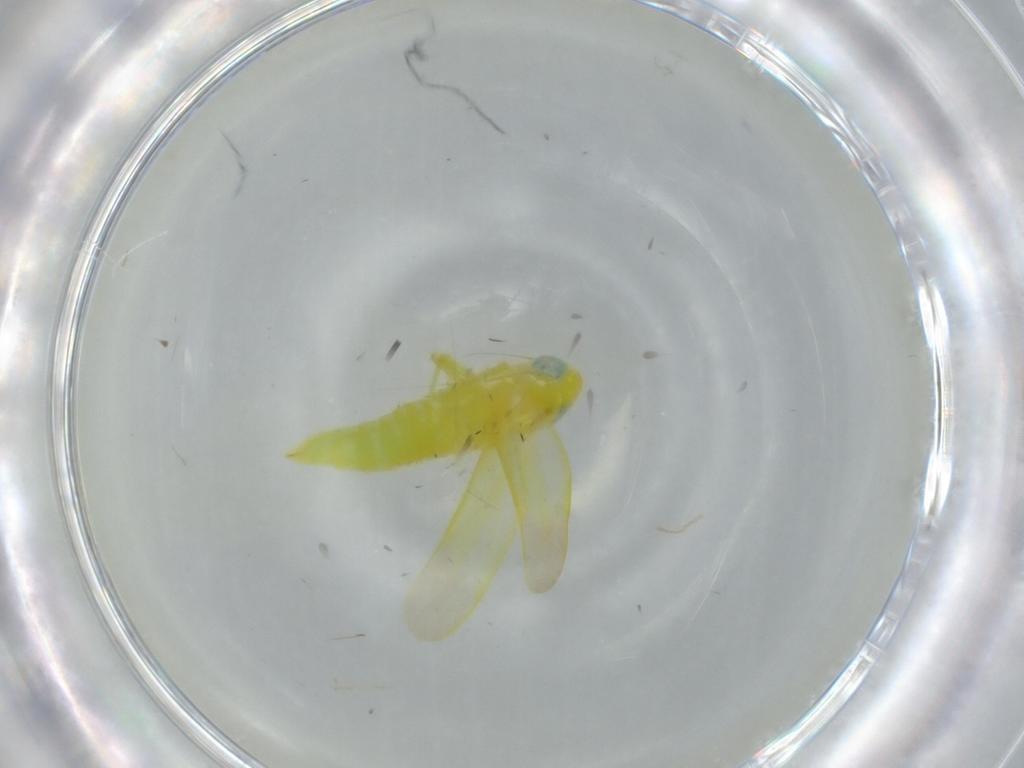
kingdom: Animalia
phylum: Arthropoda
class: Insecta
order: Hemiptera
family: Cicadellidae
